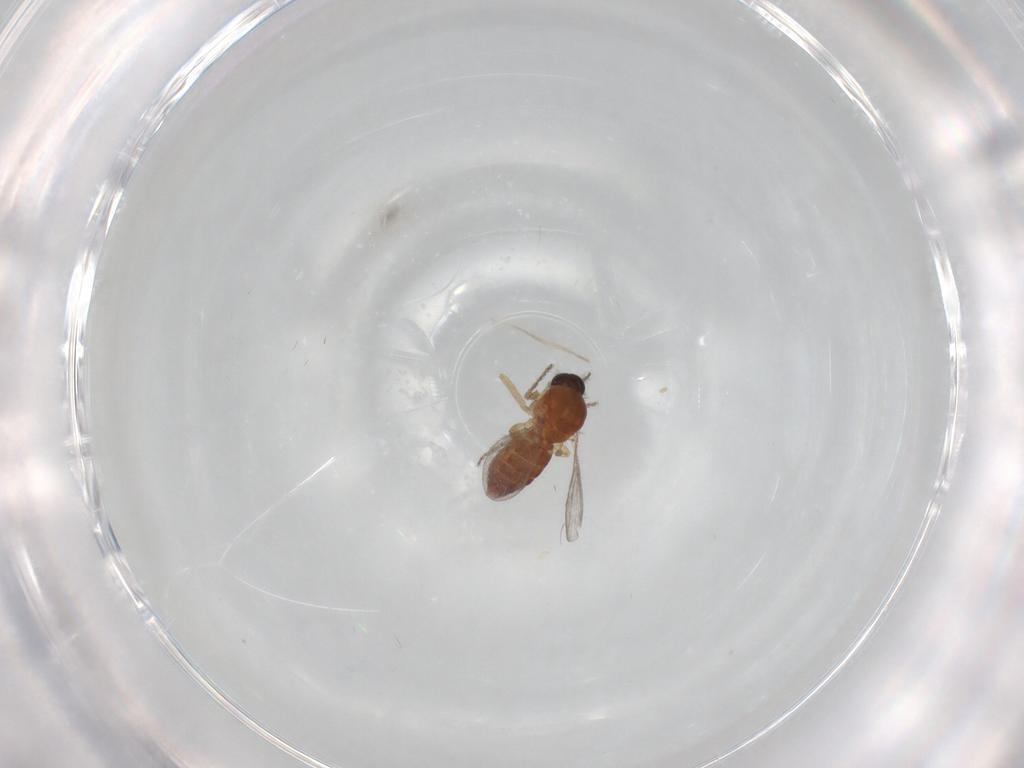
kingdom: Animalia
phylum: Arthropoda
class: Insecta
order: Diptera
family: Ceratopogonidae
